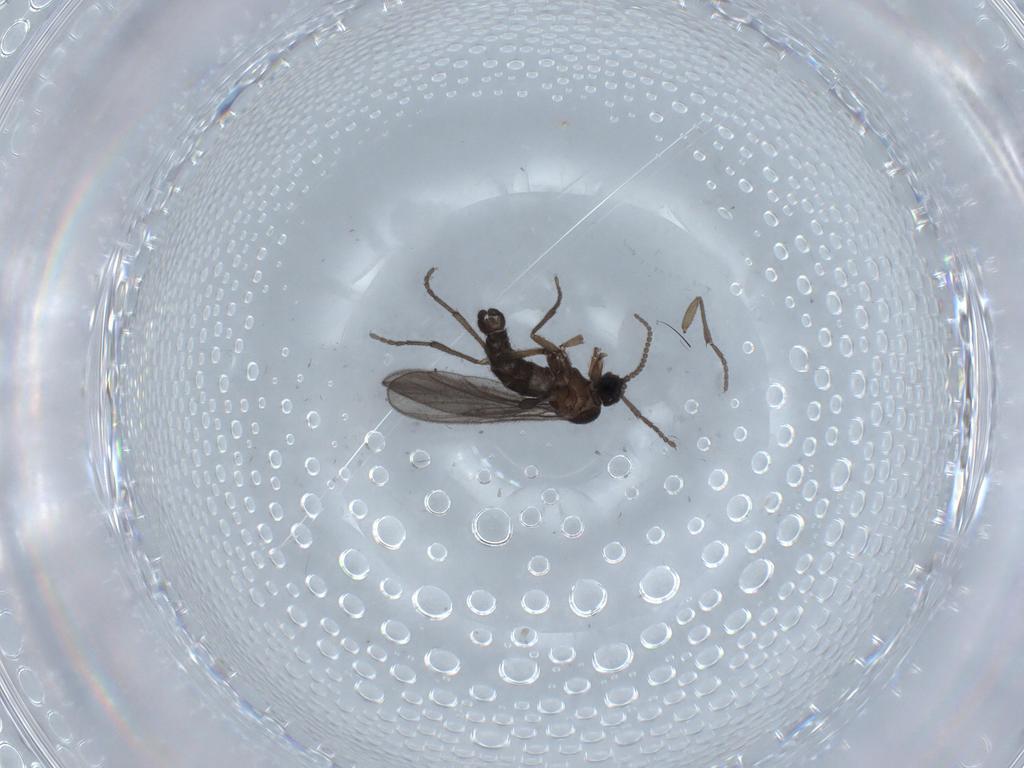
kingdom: Animalia
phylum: Arthropoda
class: Insecta
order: Diptera
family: Sciaridae
